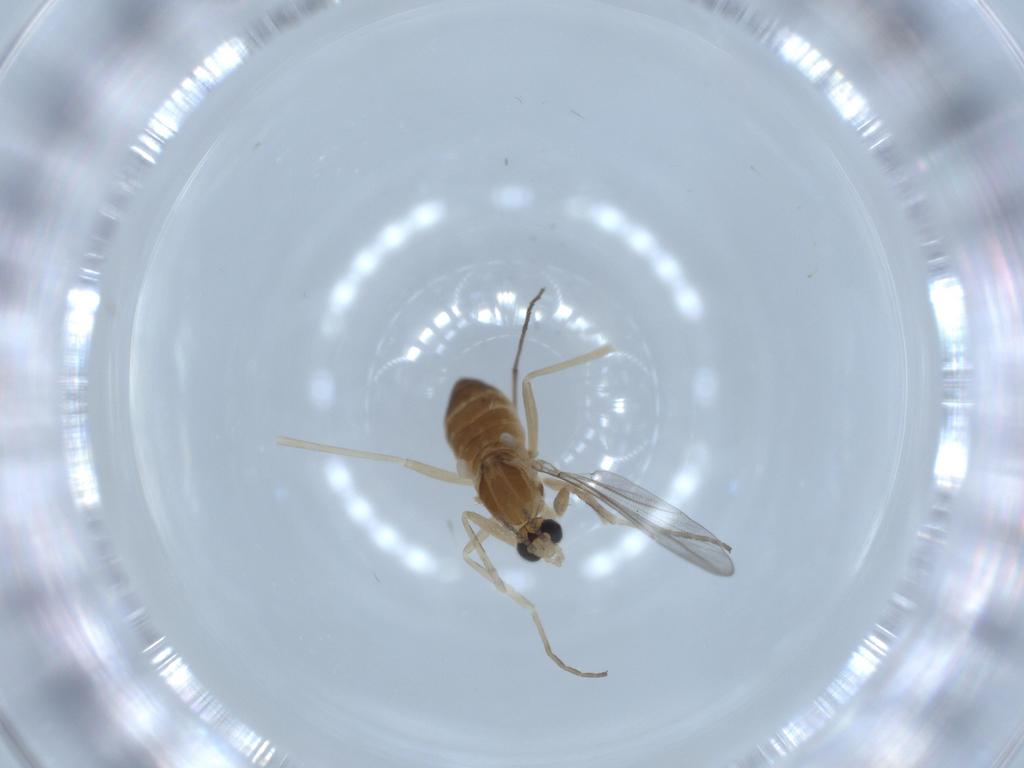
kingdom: Animalia
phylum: Arthropoda
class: Insecta
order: Diptera
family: Cecidomyiidae
